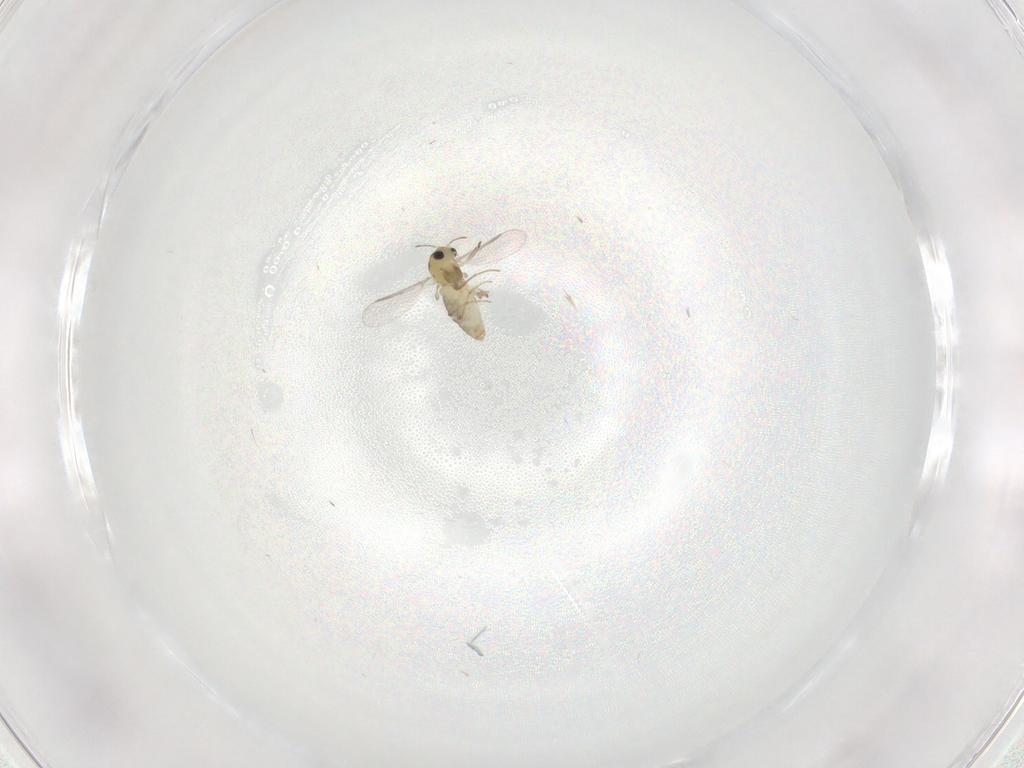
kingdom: Animalia
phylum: Arthropoda
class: Insecta
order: Diptera
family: Chironomidae
